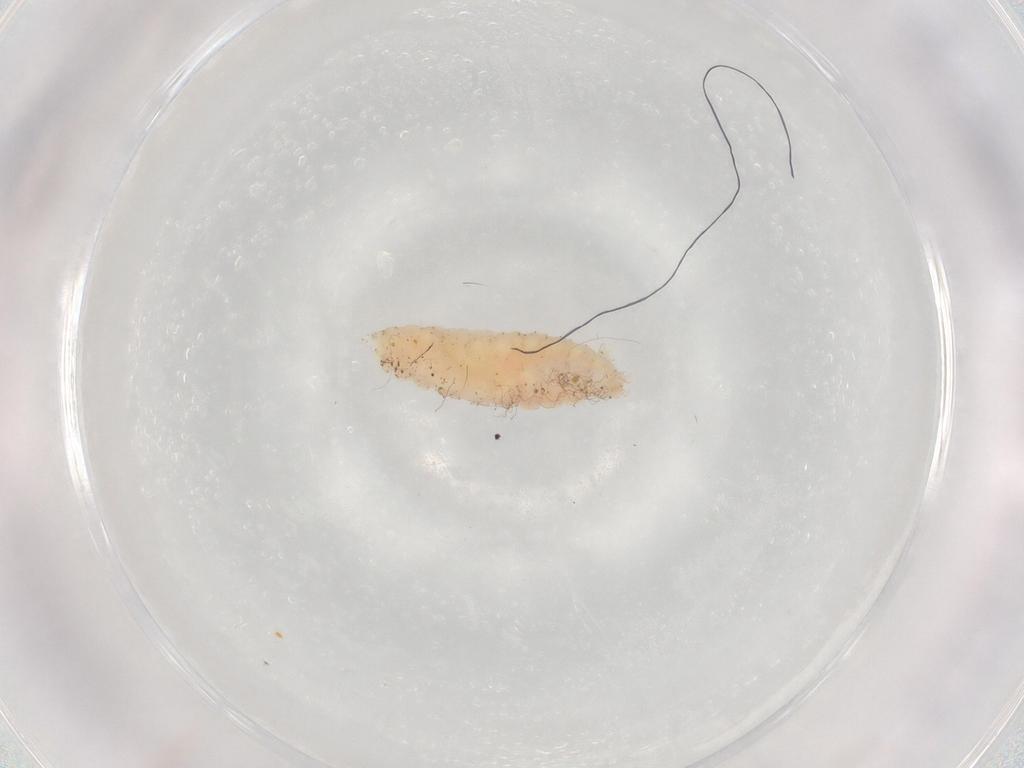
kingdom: Animalia
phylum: Arthropoda
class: Insecta
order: Diptera
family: Cecidomyiidae
